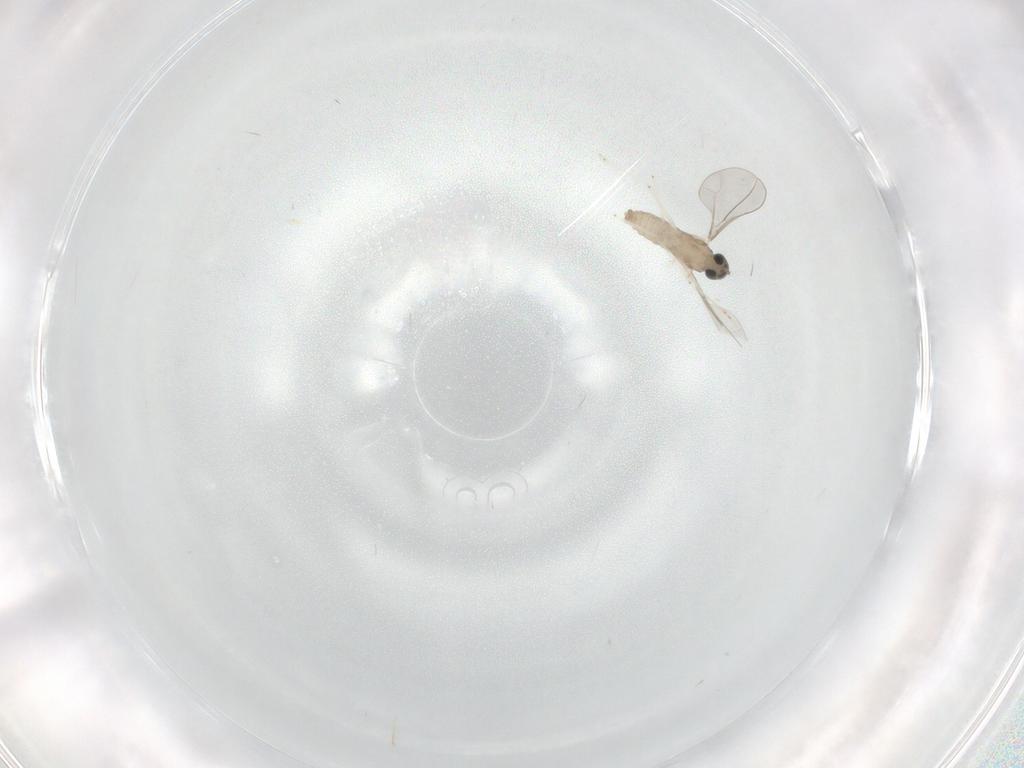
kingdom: Animalia
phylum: Arthropoda
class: Insecta
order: Diptera
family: Cecidomyiidae
